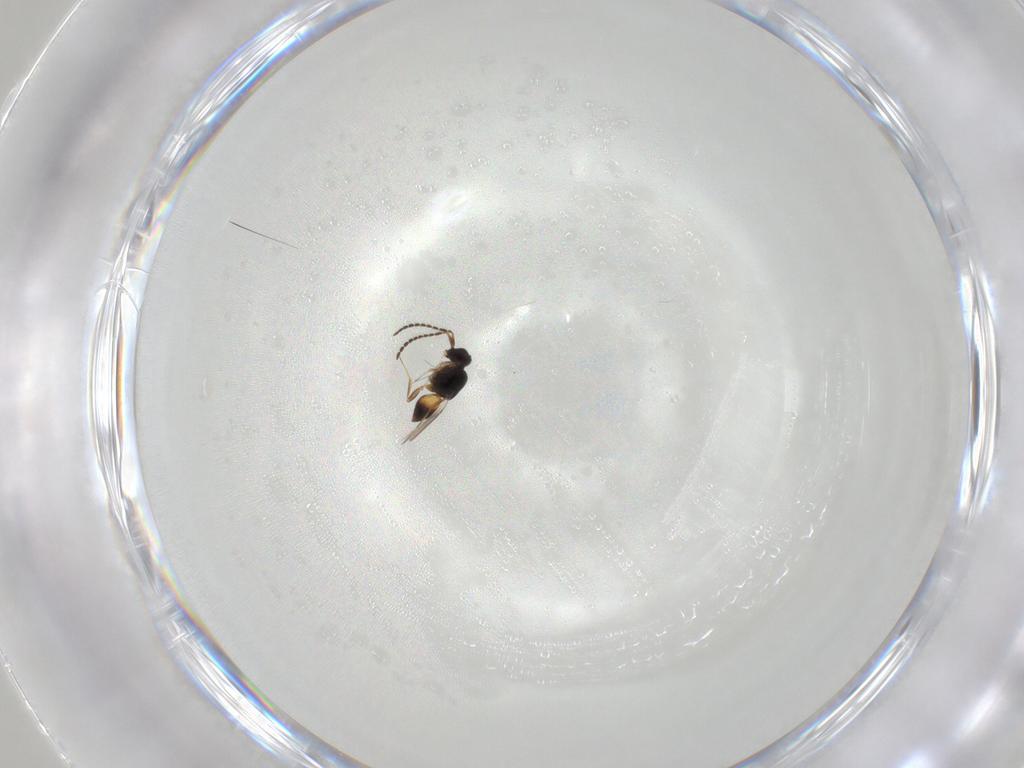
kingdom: Animalia
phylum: Arthropoda
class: Insecta
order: Hymenoptera
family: Ceraphronidae
